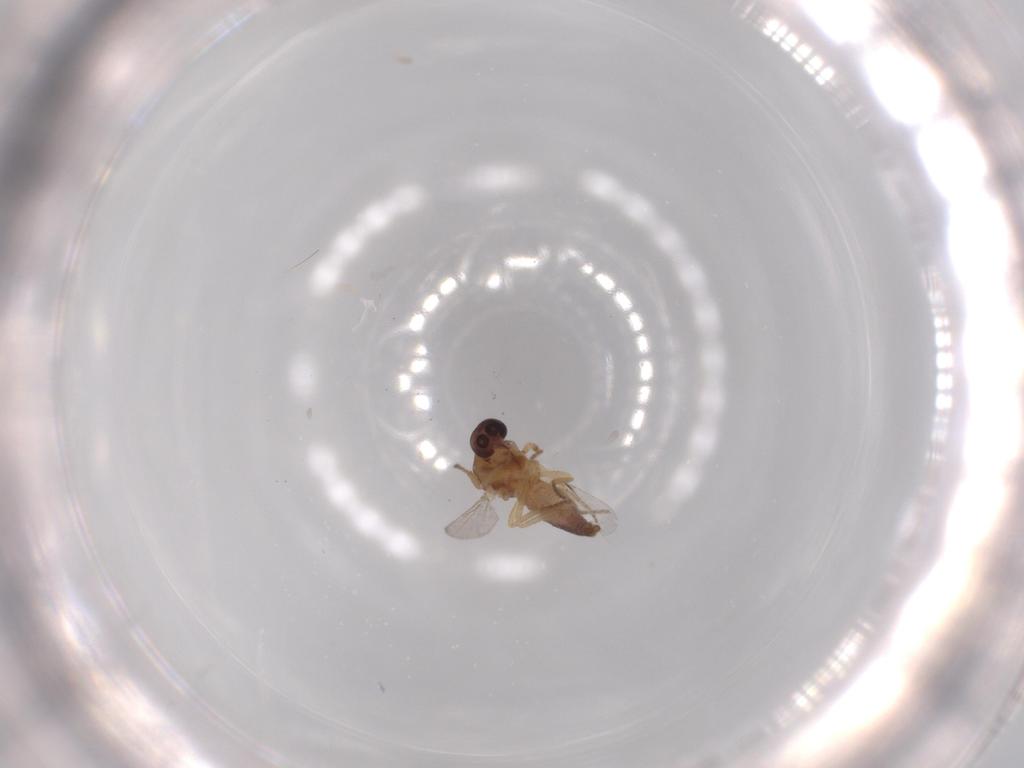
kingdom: Animalia
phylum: Arthropoda
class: Insecta
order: Diptera
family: Ceratopogonidae
